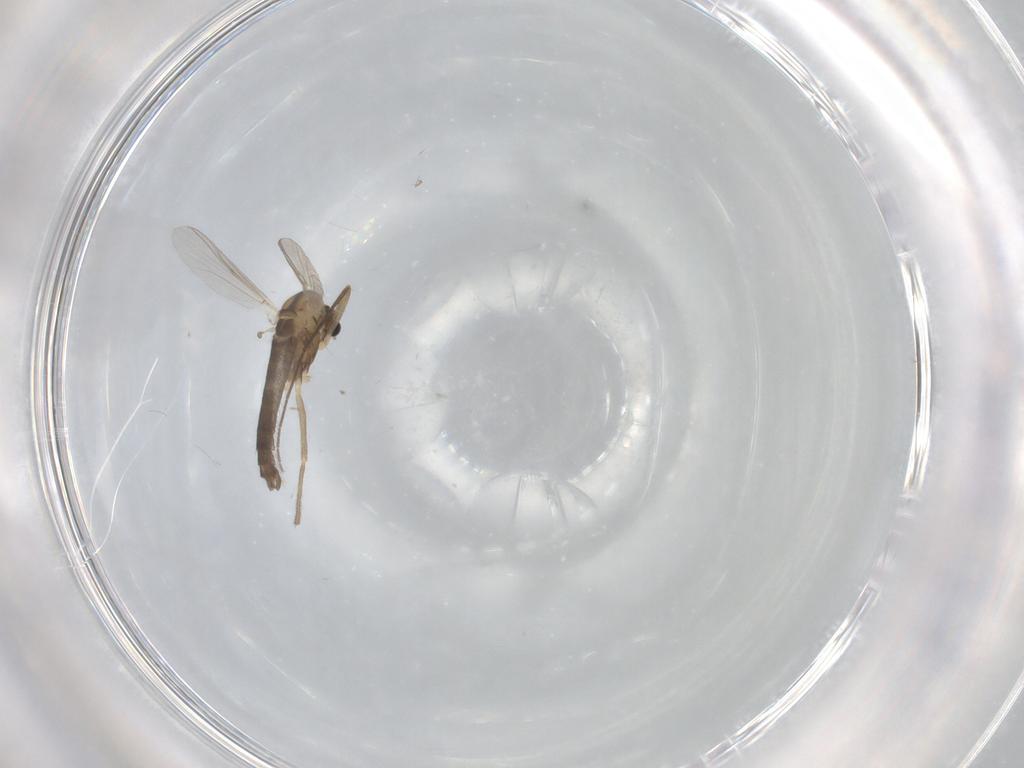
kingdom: Animalia
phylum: Arthropoda
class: Insecta
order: Diptera
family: Chironomidae
